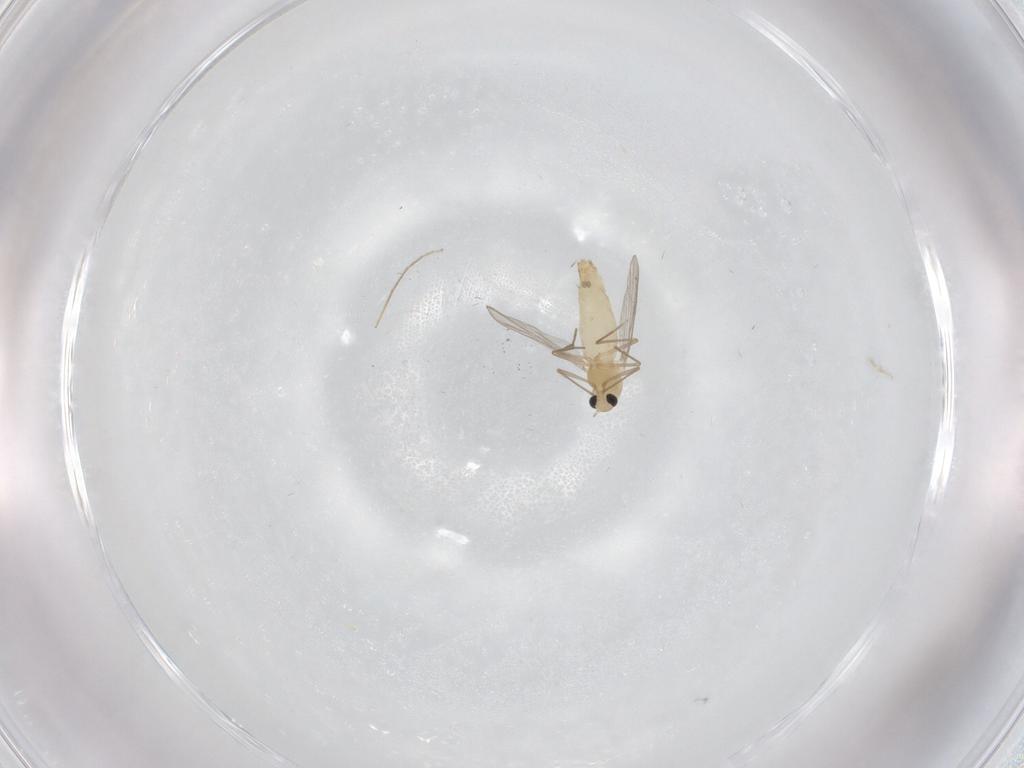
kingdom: Animalia
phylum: Arthropoda
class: Insecta
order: Diptera
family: Chironomidae
